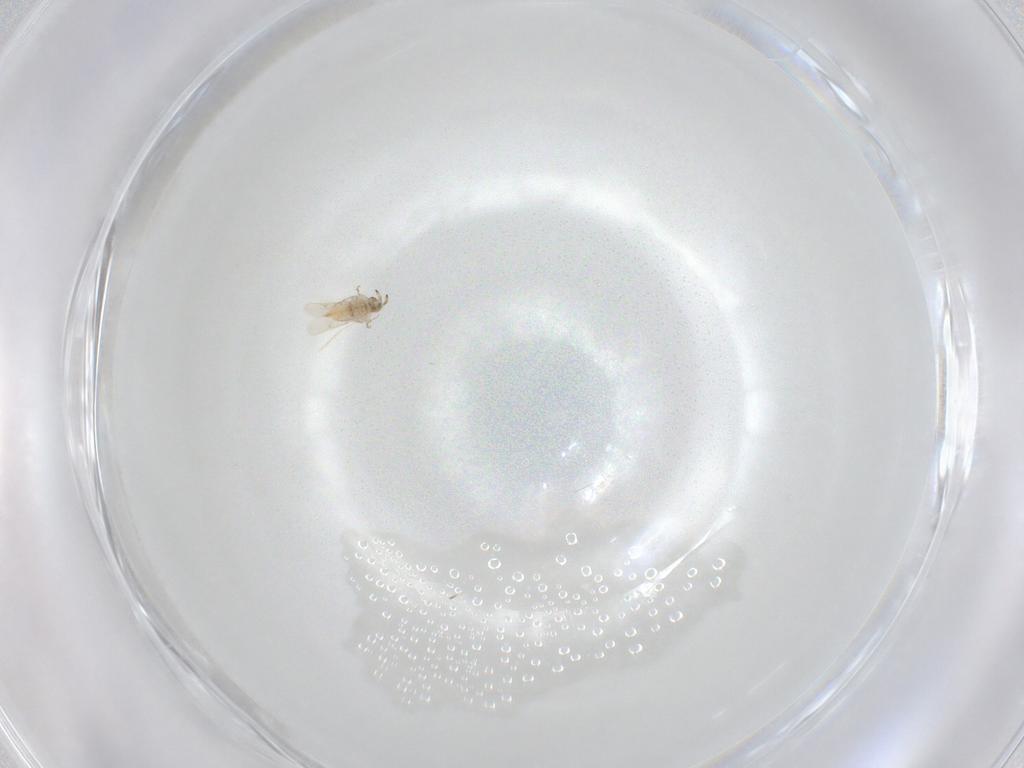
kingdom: Animalia
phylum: Arthropoda
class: Insecta
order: Hymenoptera
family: Aphelinidae
